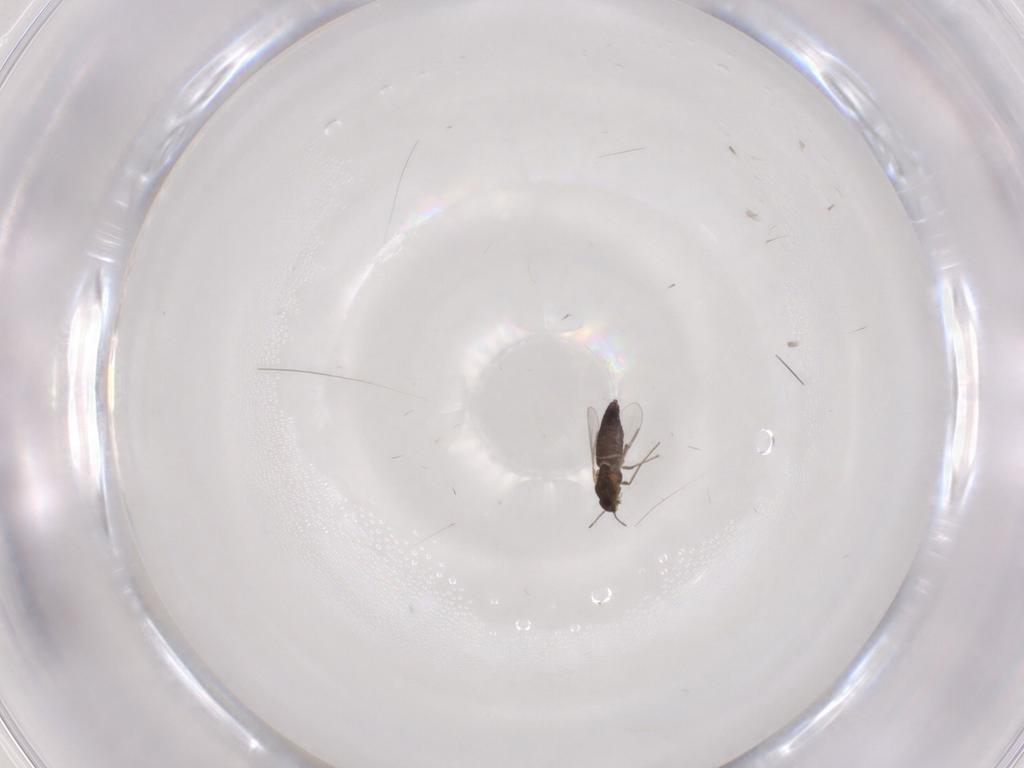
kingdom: Animalia
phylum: Arthropoda
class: Insecta
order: Diptera
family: Chironomidae
